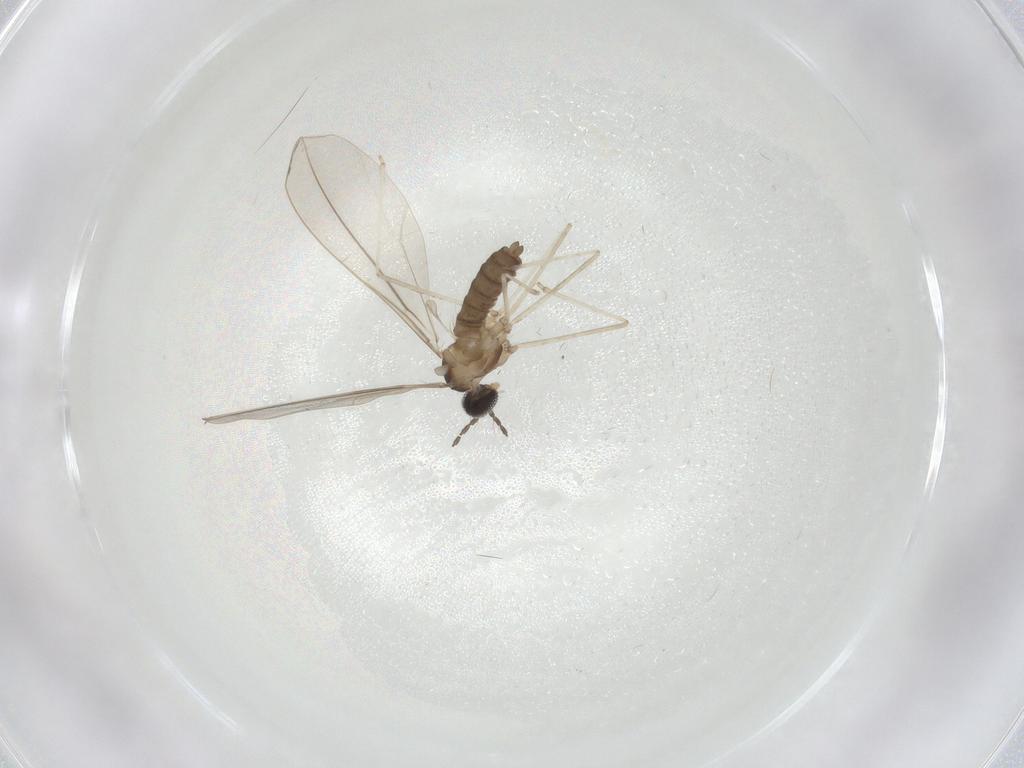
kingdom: Animalia
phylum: Arthropoda
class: Insecta
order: Diptera
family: Cecidomyiidae
